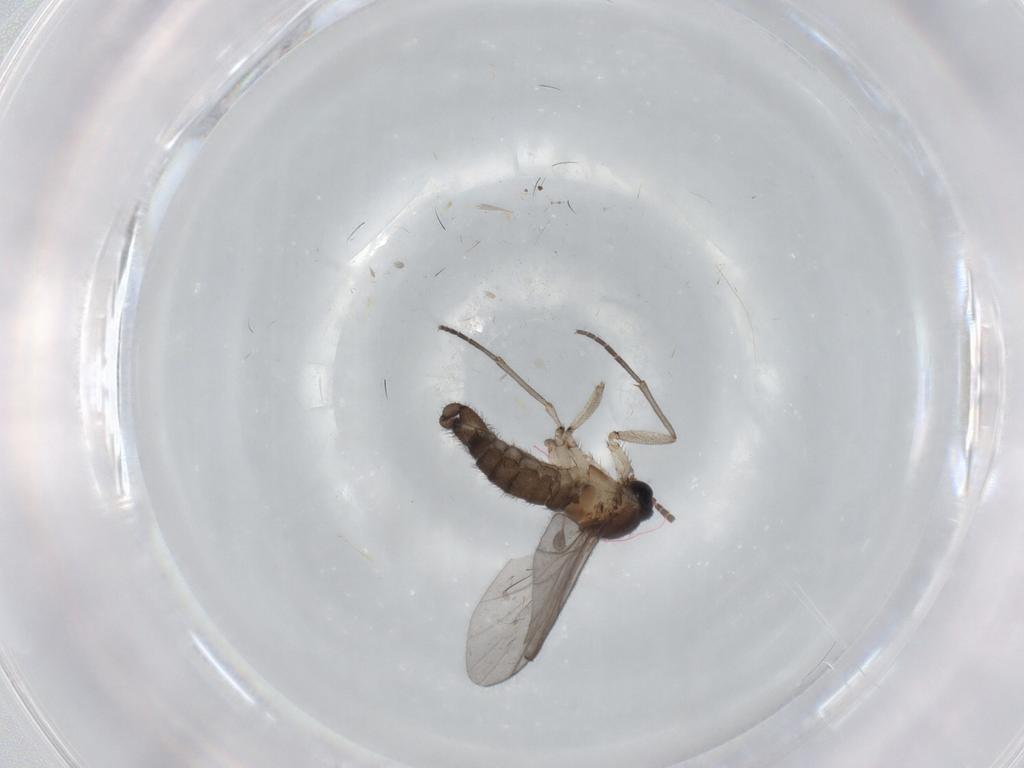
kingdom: Animalia
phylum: Arthropoda
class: Insecta
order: Diptera
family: Sciaridae
